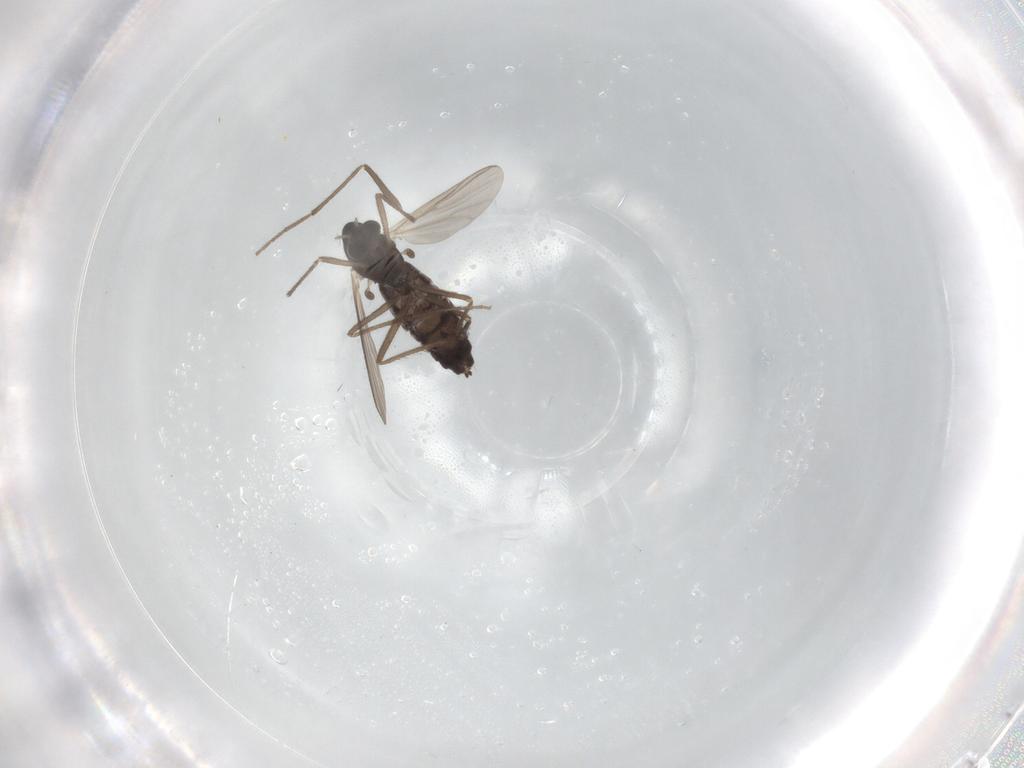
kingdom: Animalia
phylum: Arthropoda
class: Insecta
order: Diptera
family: Chironomidae
